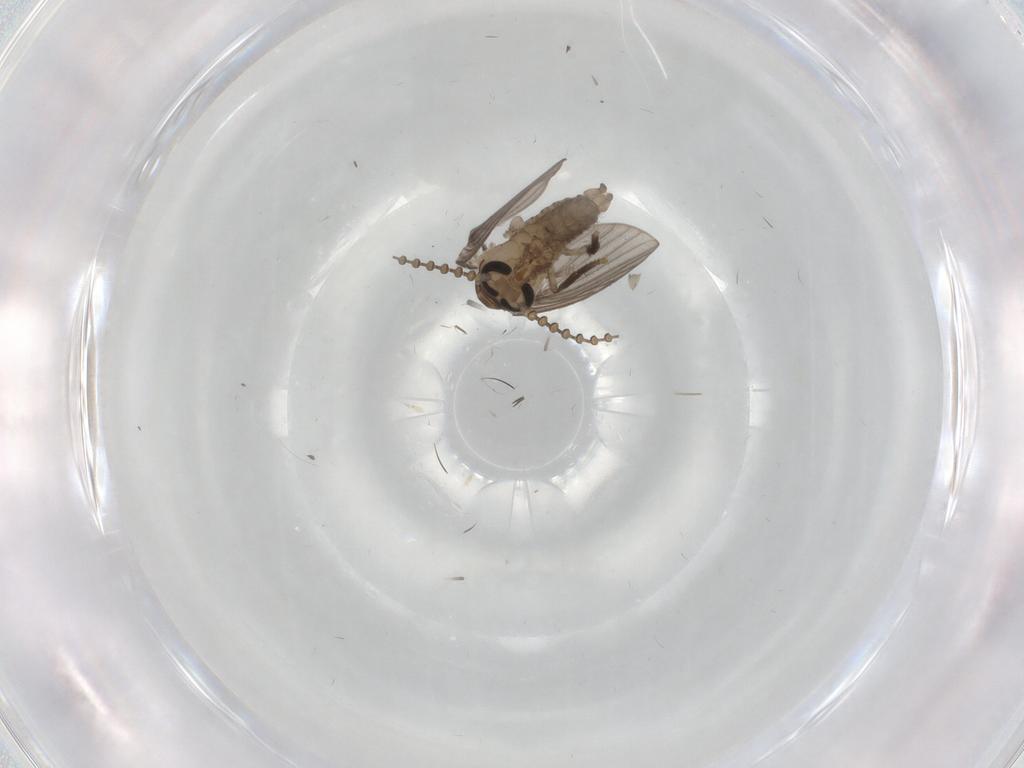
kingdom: Animalia
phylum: Arthropoda
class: Insecta
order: Diptera
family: Psychodidae
